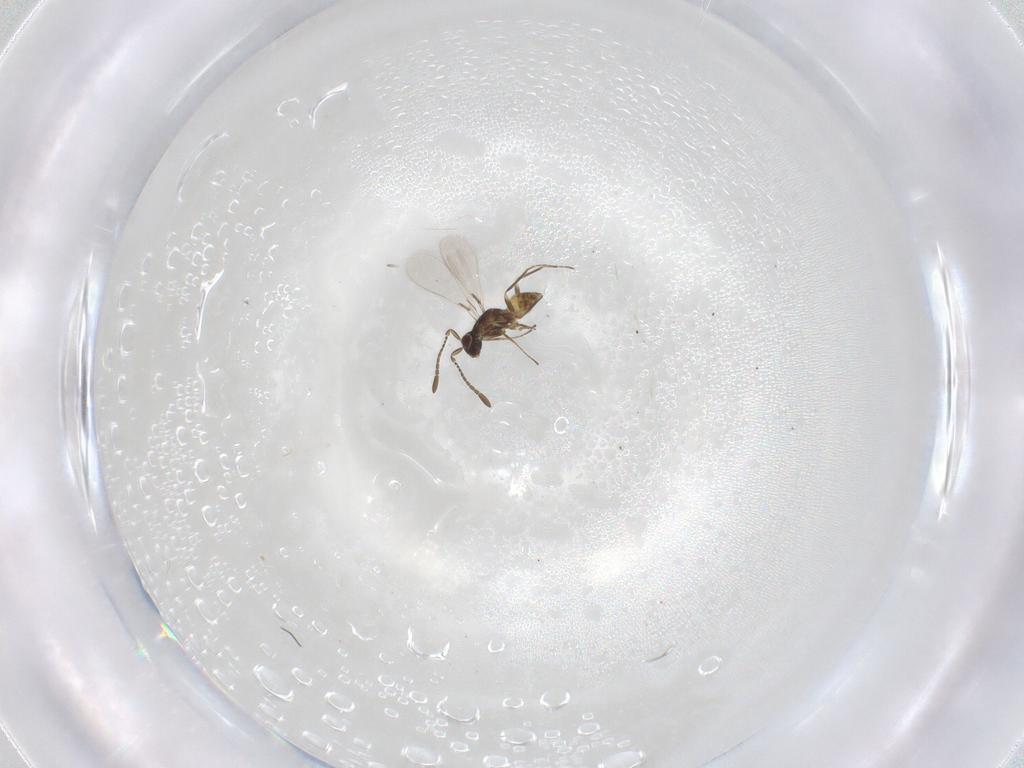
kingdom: Animalia
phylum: Arthropoda
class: Insecta
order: Hymenoptera
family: Mymaridae
